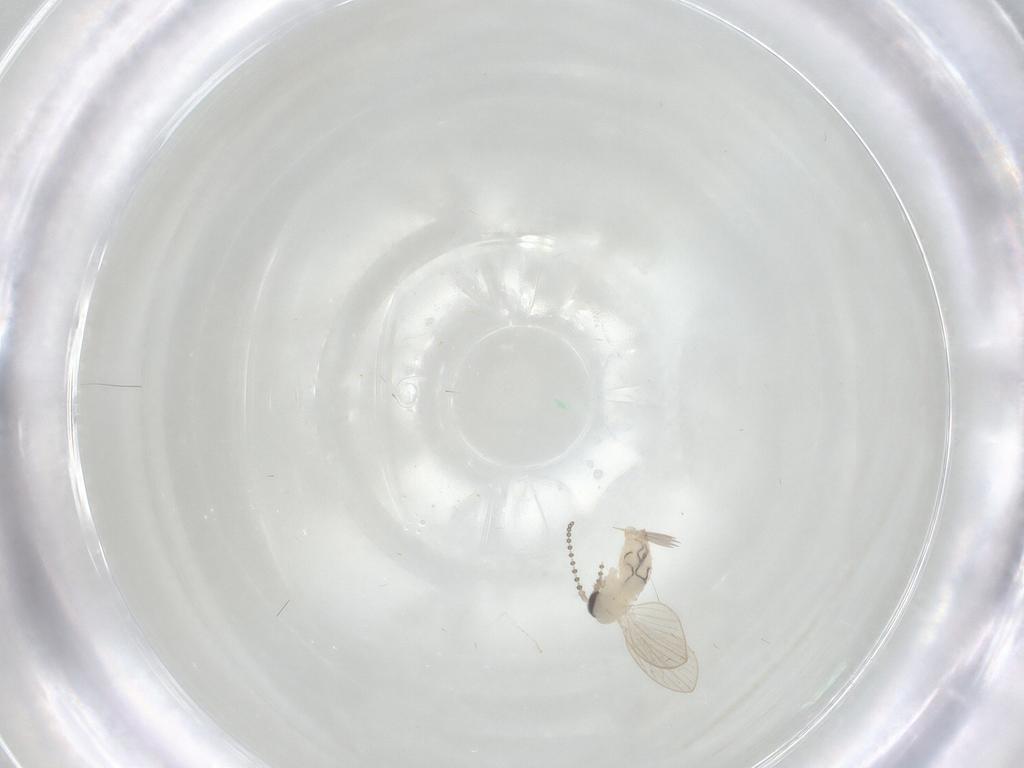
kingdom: Animalia
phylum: Arthropoda
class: Insecta
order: Diptera
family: Psychodidae
